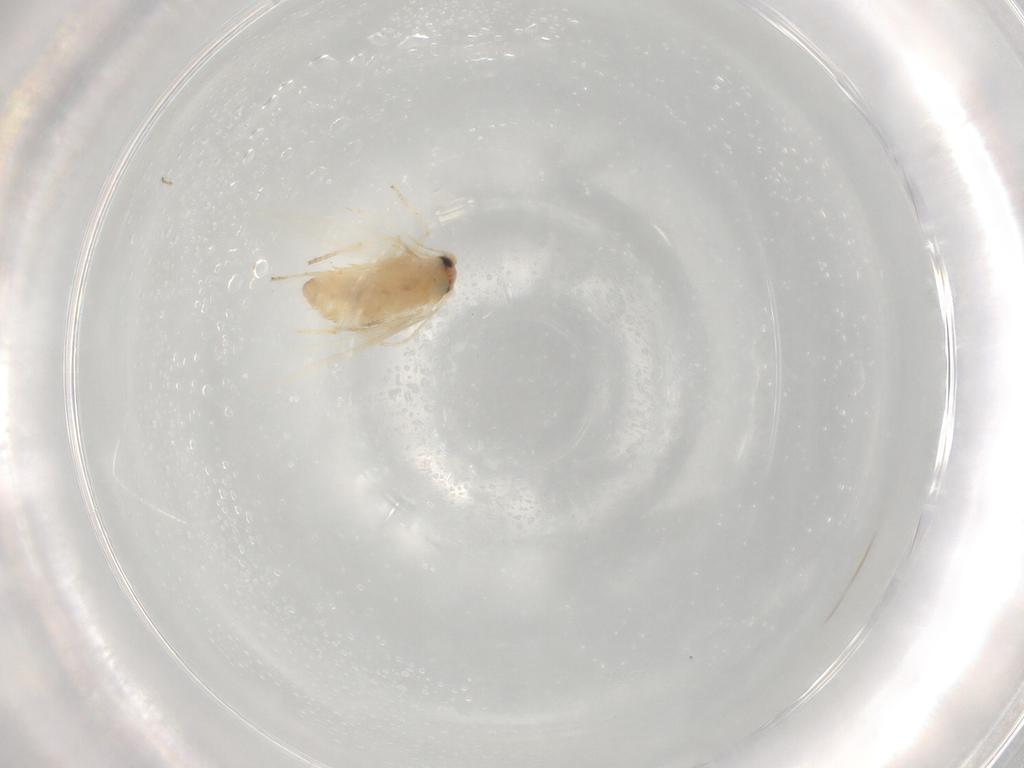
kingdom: Animalia
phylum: Arthropoda
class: Insecta
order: Lepidoptera
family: Nepticulidae
